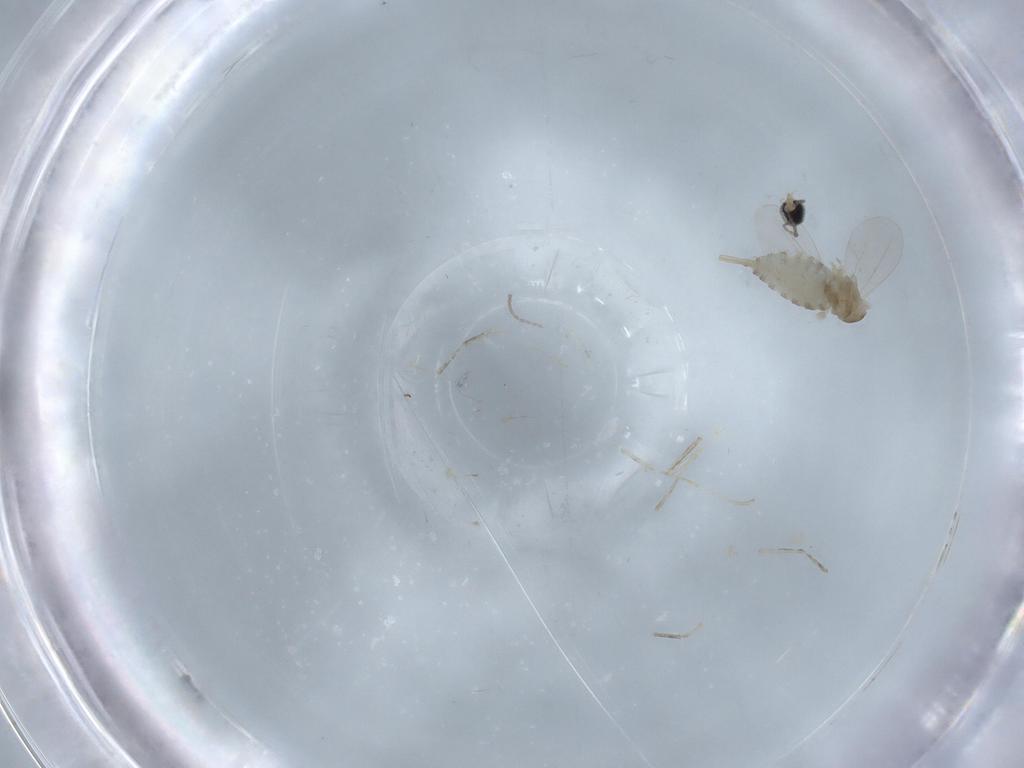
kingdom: Animalia
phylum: Arthropoda
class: Insecta
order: Diptera
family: Cecidomyiidae
